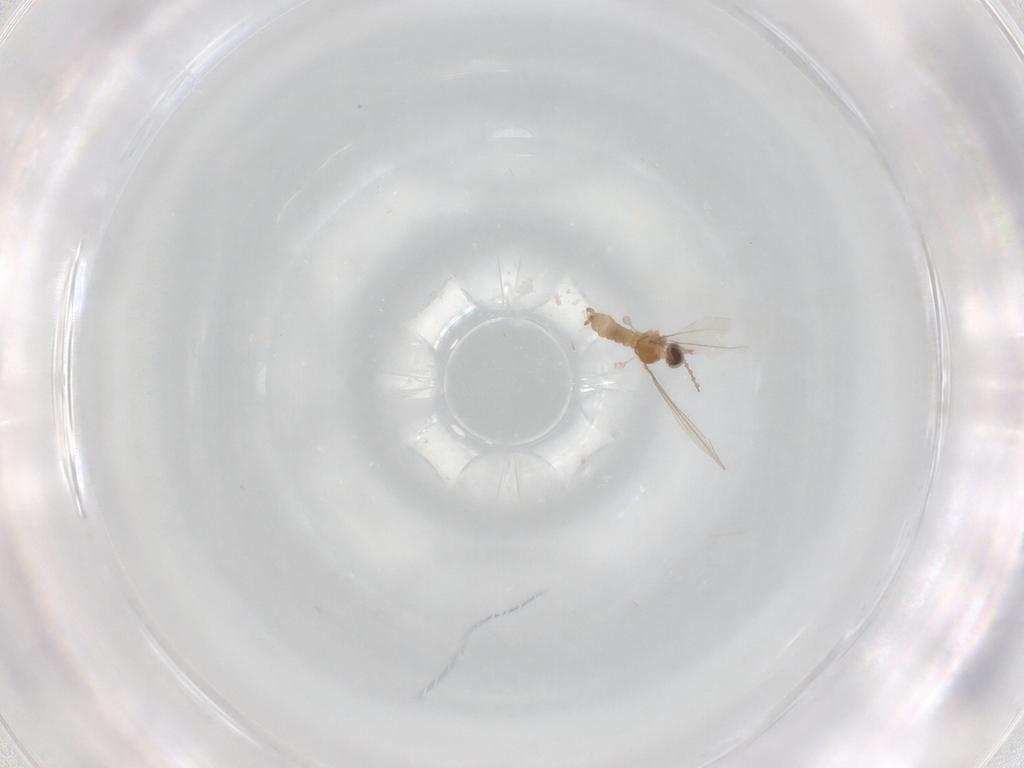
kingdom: Animalia
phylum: Arthropoda
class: Insecta
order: Diptera
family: Ceratopogonidae
